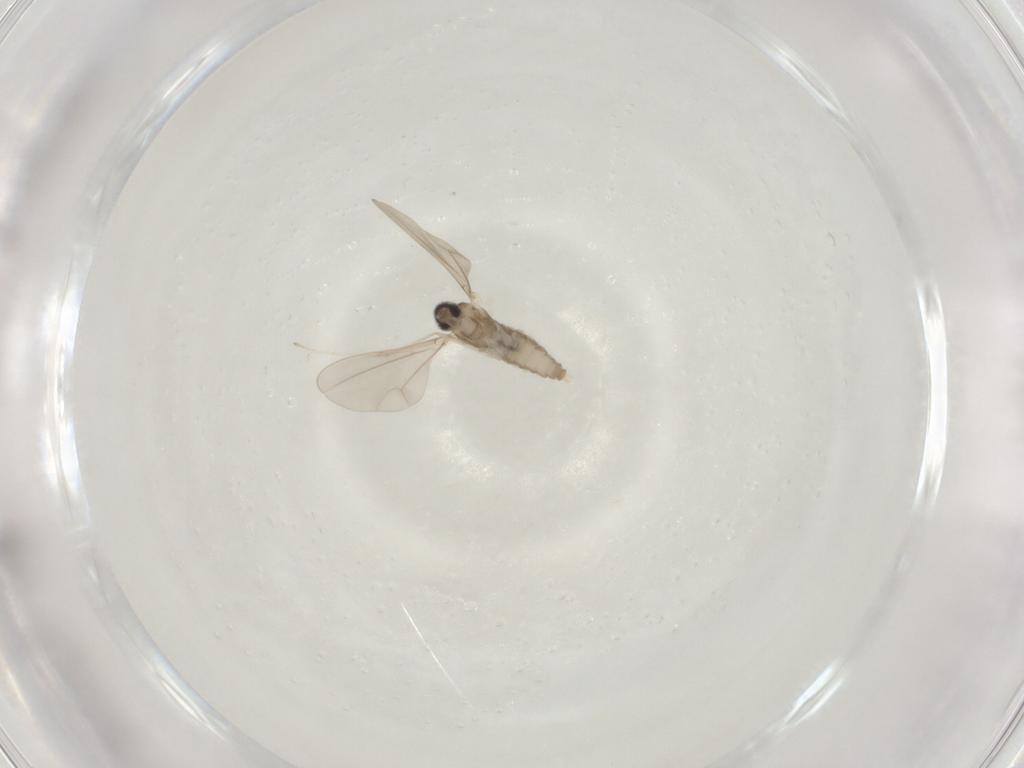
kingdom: Animalia
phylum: Arthropoda
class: Insecta
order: Diptera
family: Cecidomyiidae
